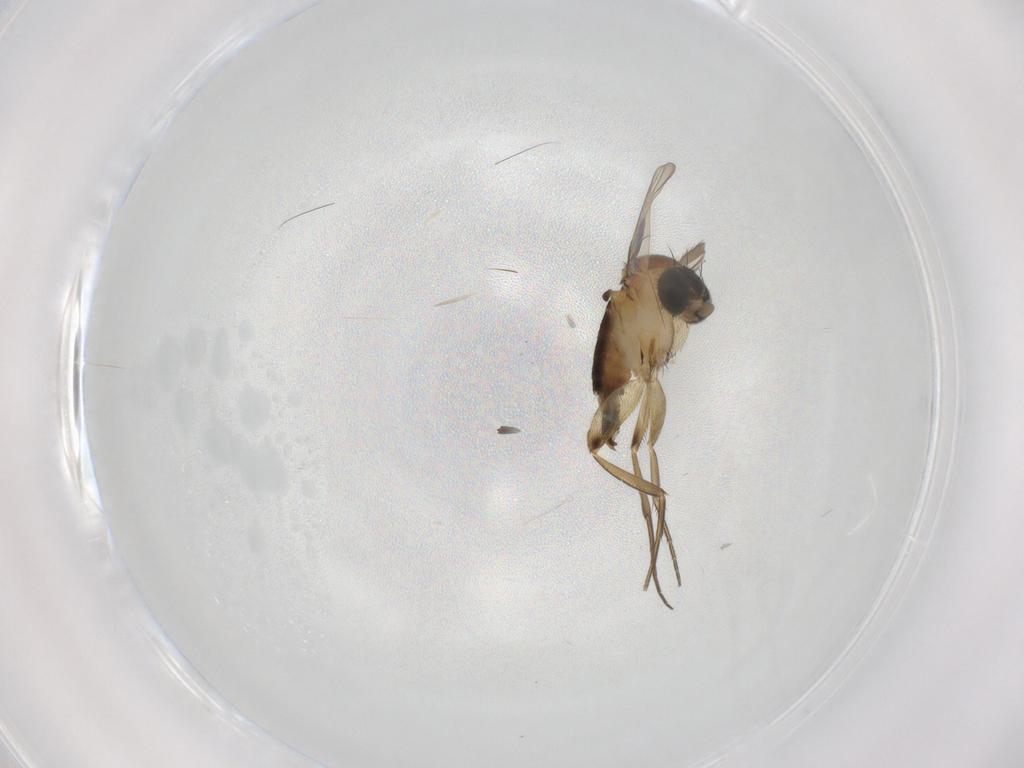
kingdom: Animalia
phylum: Arthropoda
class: Insecta
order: Diptera
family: Phoridae
